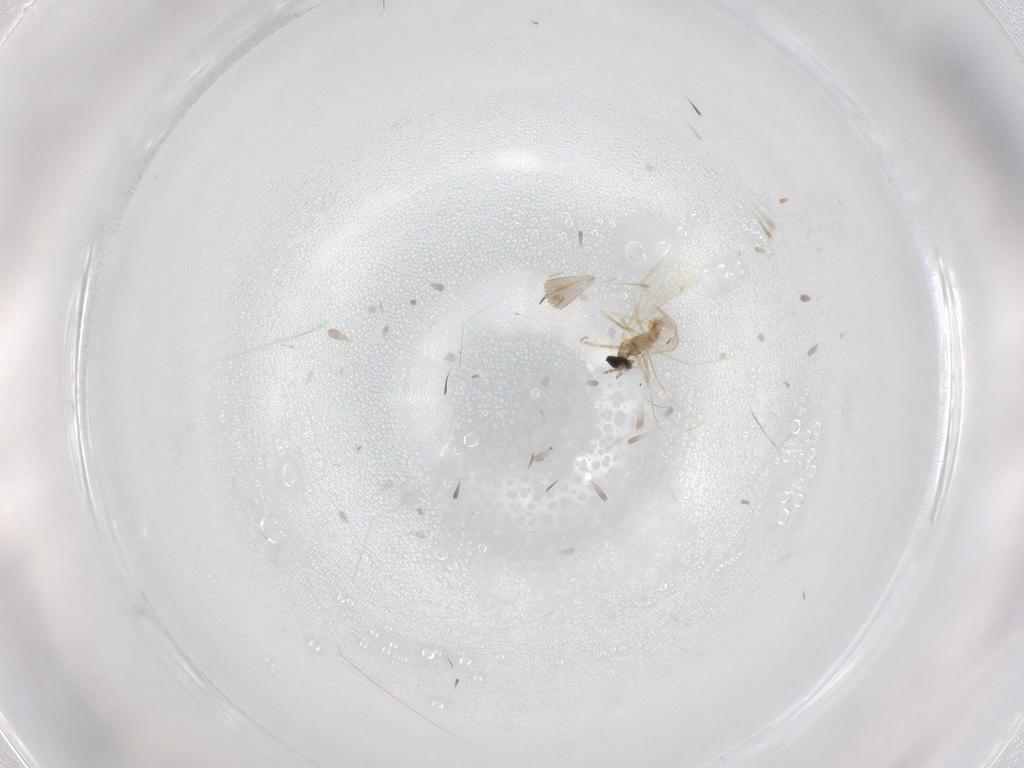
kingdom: Animalia
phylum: Arthropoda
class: Insecta
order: Diptera
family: Cecidomyiidae
